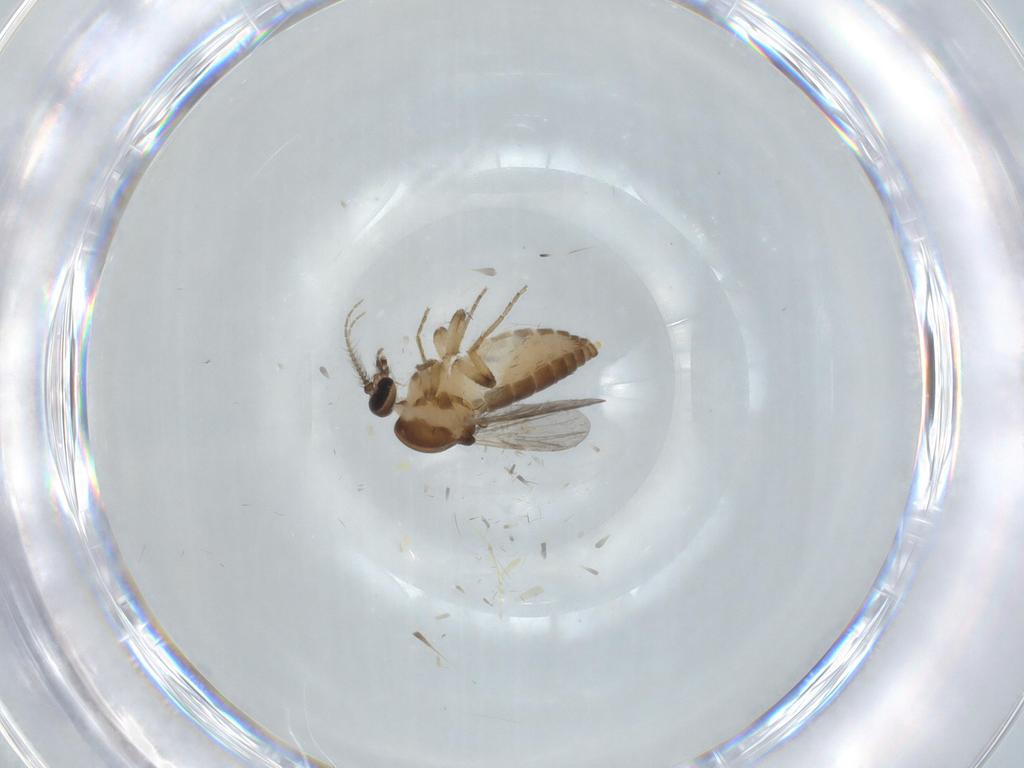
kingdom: Animalia
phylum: Arthropoda
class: Insecta
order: Diptera
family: Ceratopogonidae
